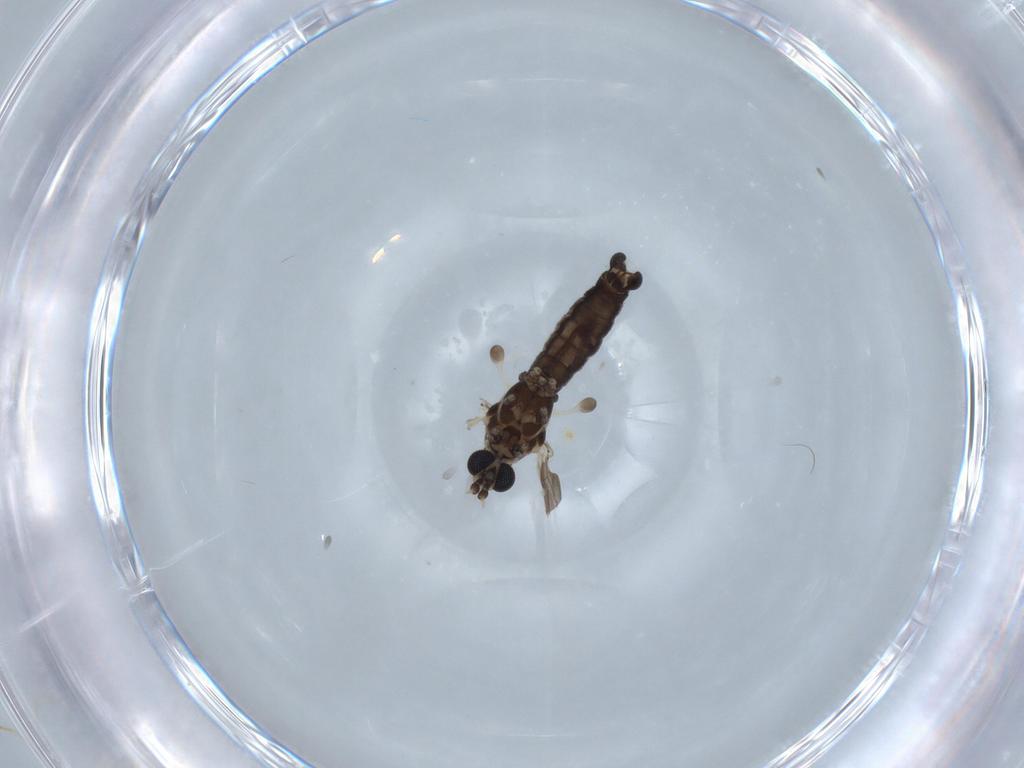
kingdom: Animalia
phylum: Arthropoda
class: Insecta
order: Diptera
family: Limoniidae
